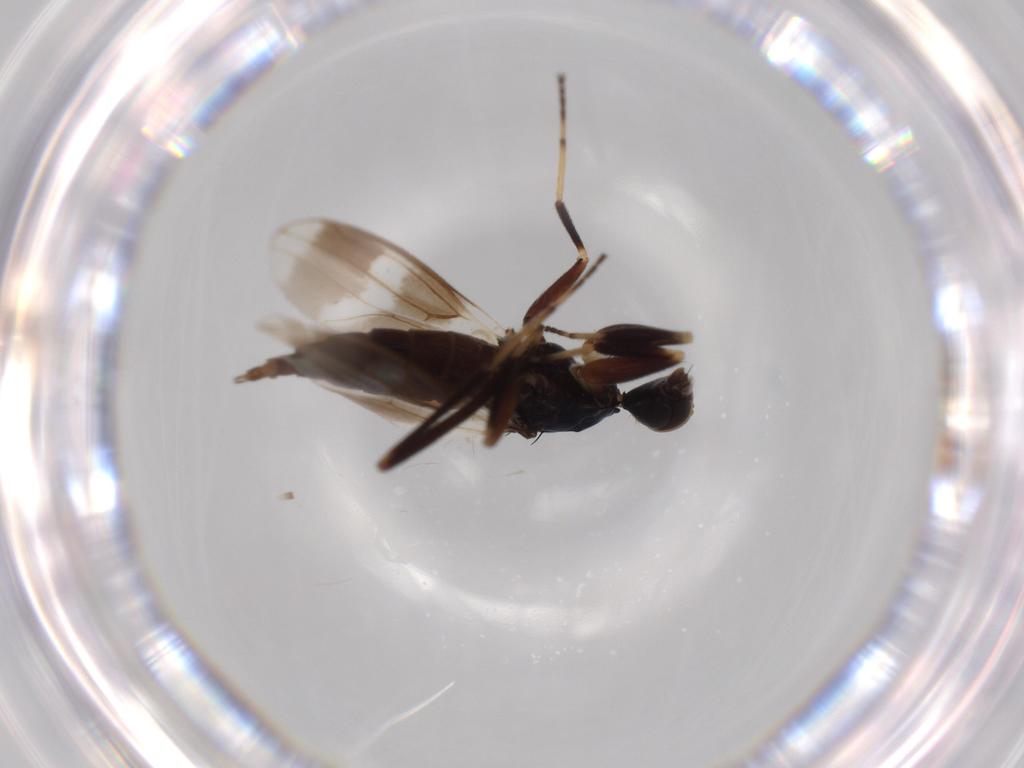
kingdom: Animalia
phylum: Arthropoda
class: Insecta
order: Diptera
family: Hybotidae
